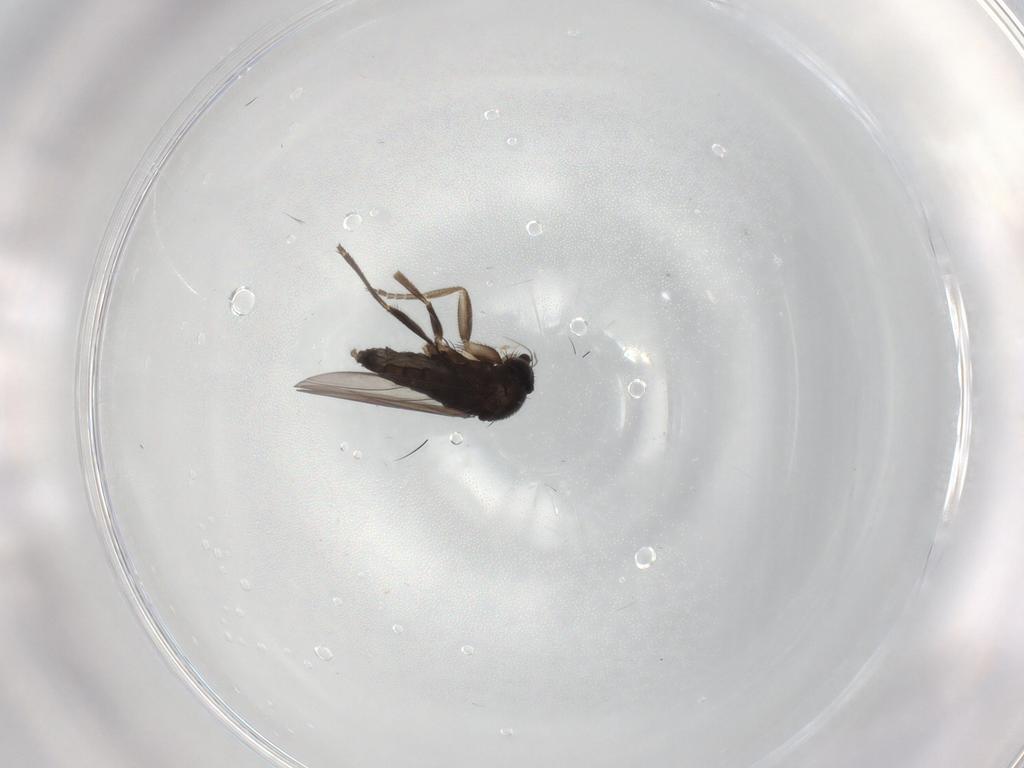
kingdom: Animalia
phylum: Arthropoda
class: Insecta
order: Diptera
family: Phoridae
